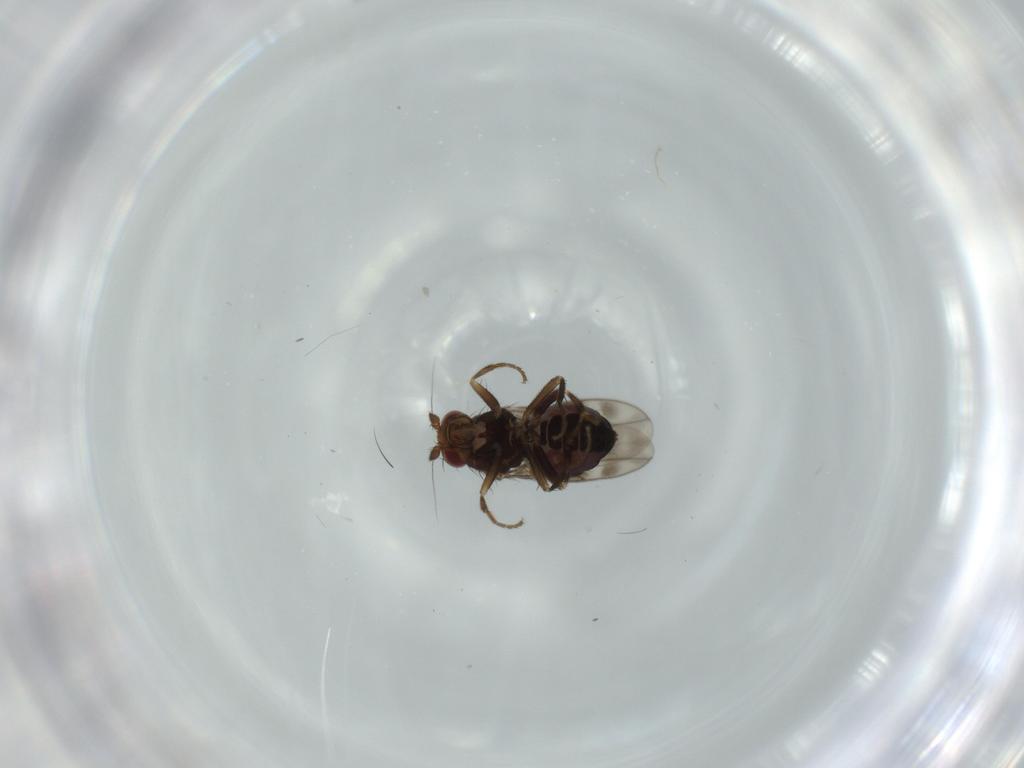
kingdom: Animalia
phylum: Arthropoda
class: Insecta
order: Diptera
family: Sphaeroceridae
